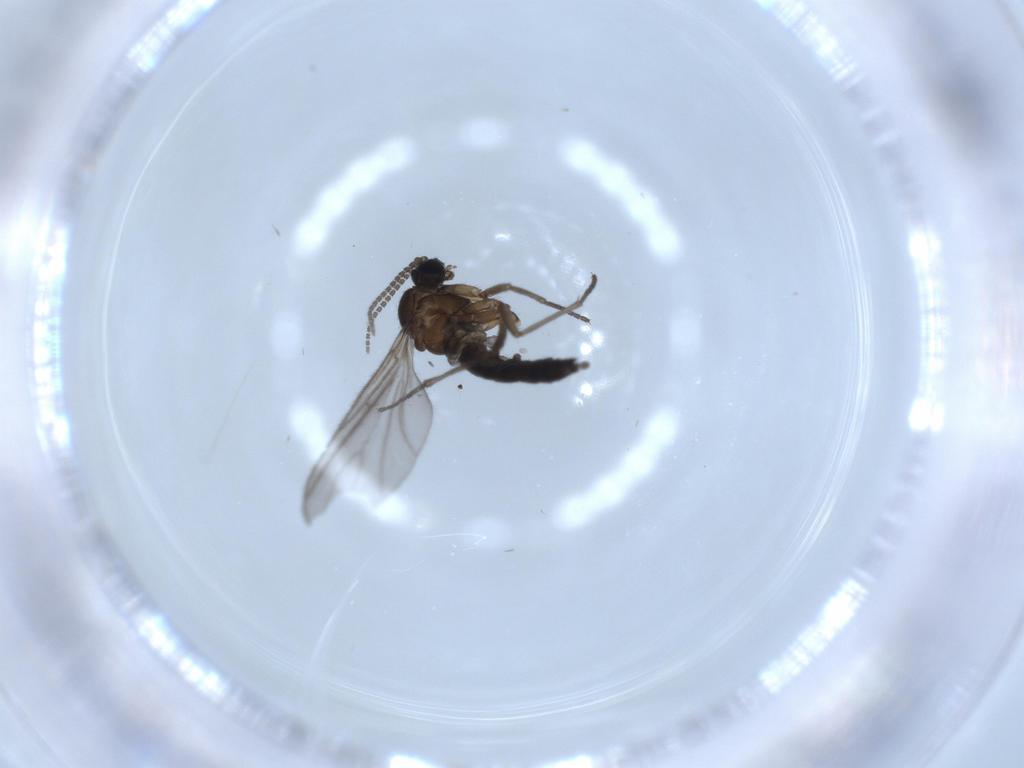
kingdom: Animalia
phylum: Arthropoda
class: Insecta
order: Diptera
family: Sciaridae
